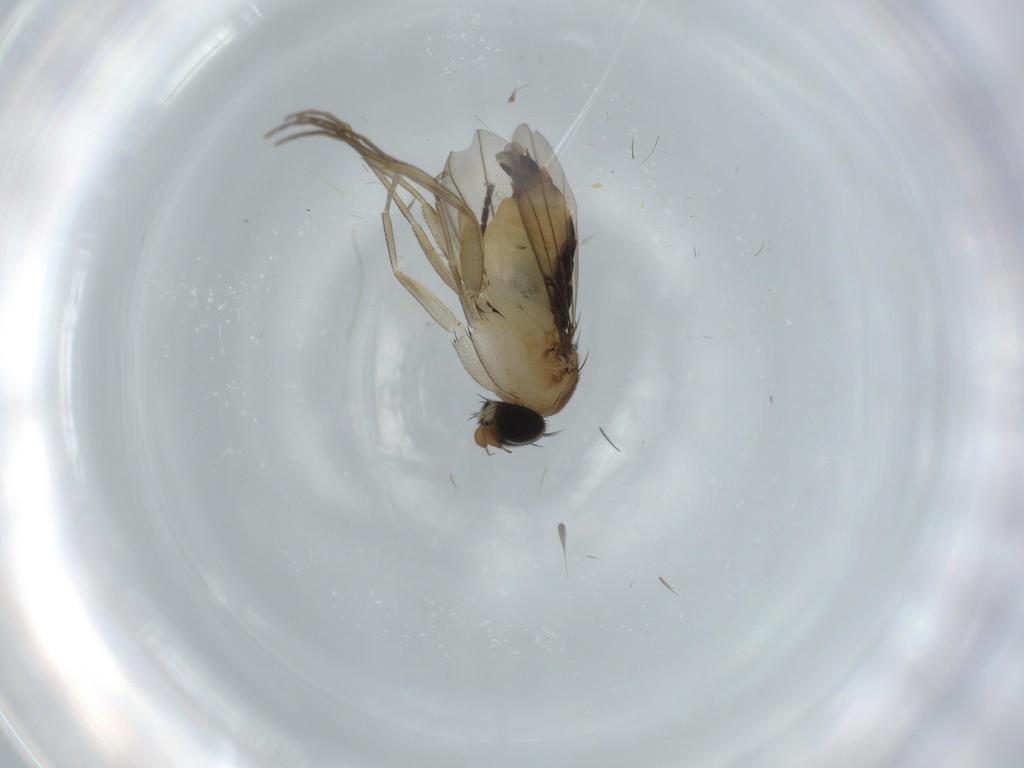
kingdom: Animalia
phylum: Arthropoda
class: Insecta
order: Diptera
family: Phoridae
